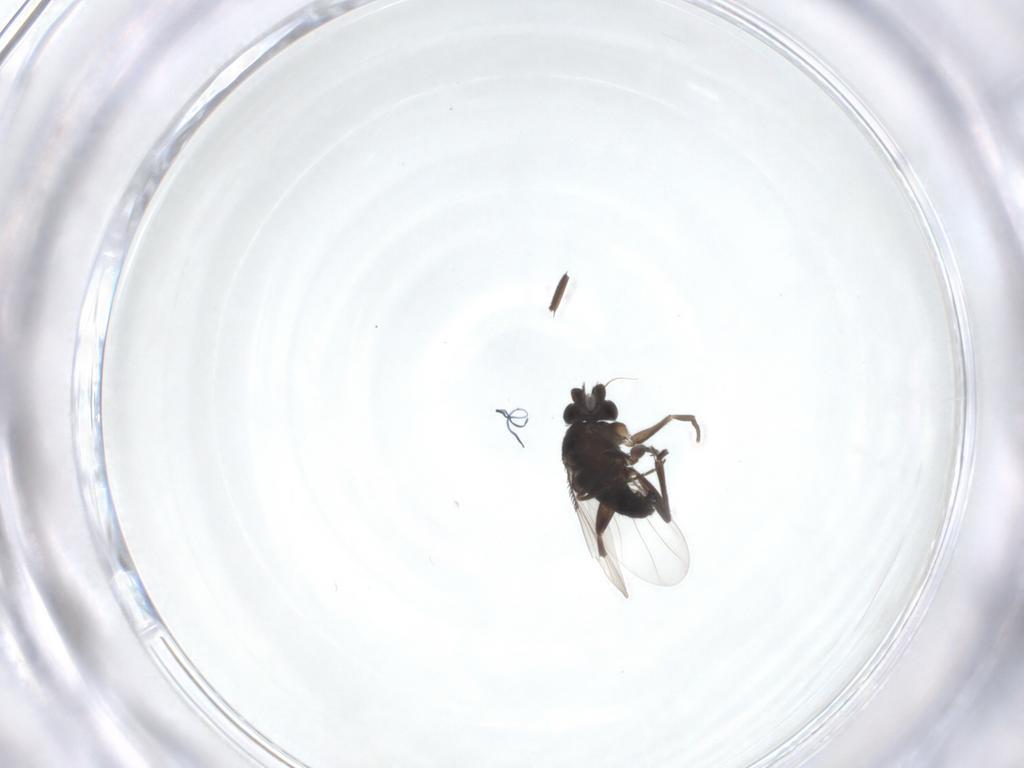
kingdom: Animalia
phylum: Arthropoda
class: Insecta
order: Diptera
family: Phoridae
